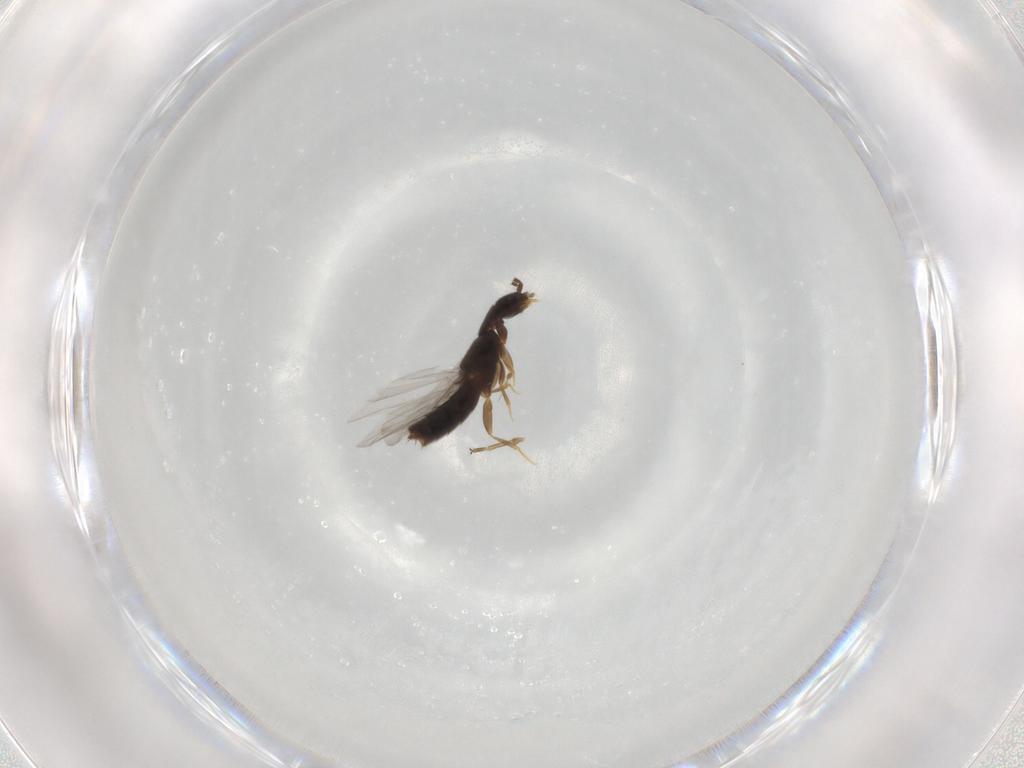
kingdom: Animalia
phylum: Arthropoda
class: Insecta
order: Coleoptera
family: Staphylinidae
